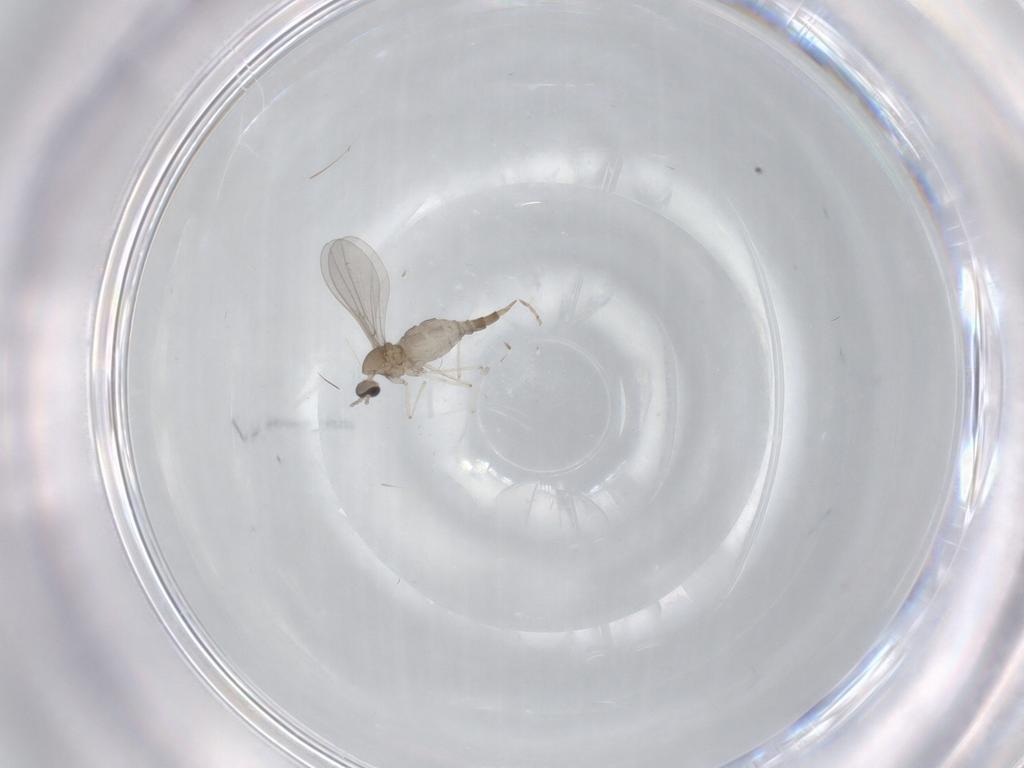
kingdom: Animalia
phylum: Arthropoda
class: Insecta
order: Diptera
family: Cecidomyiidae
